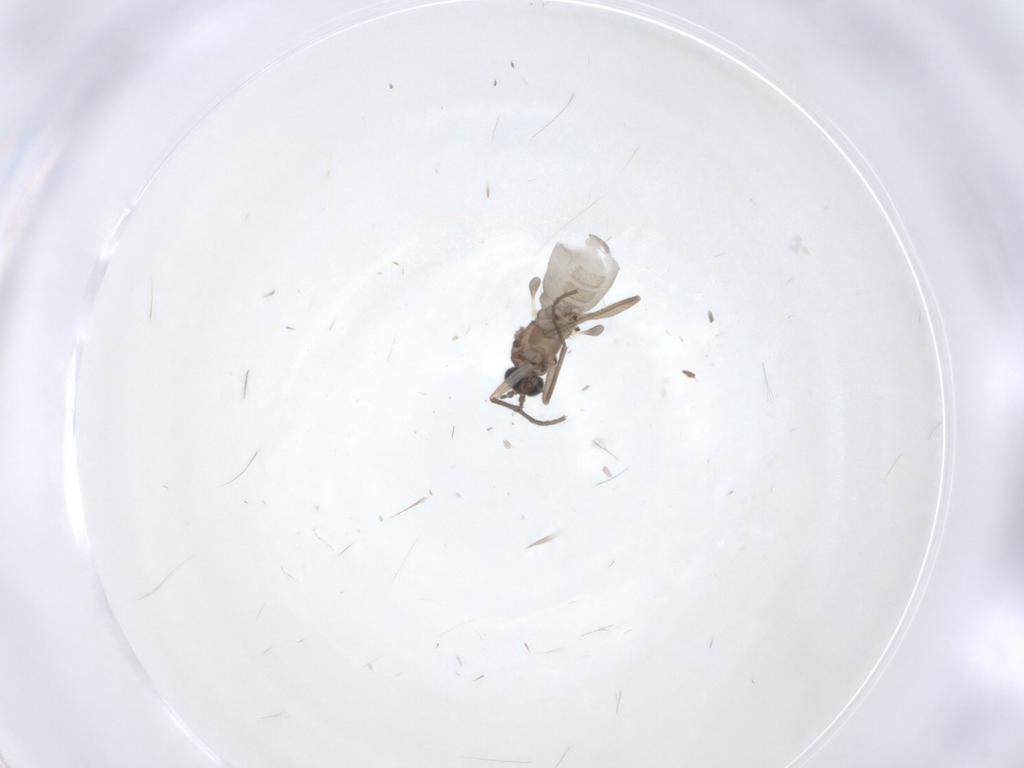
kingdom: Animalia
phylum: Arthropoda
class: Insecta
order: Diptera
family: Sciaridae
